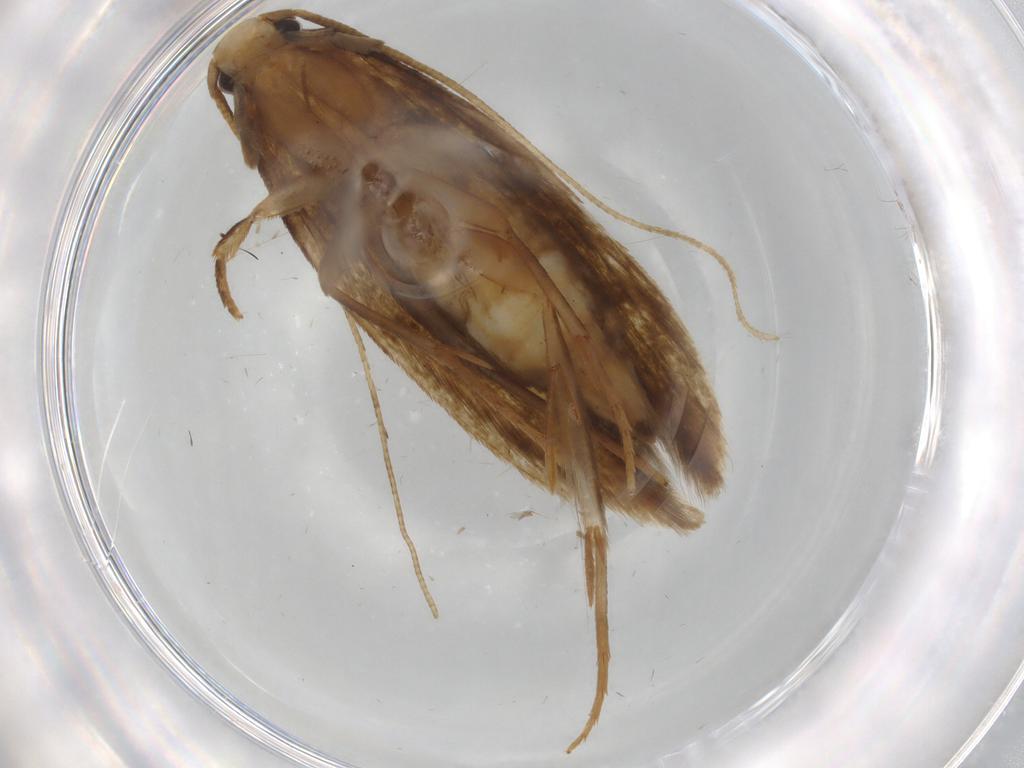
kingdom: Animalia
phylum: Arthropoda
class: Insecta
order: Lepidoptera
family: Tineidae
